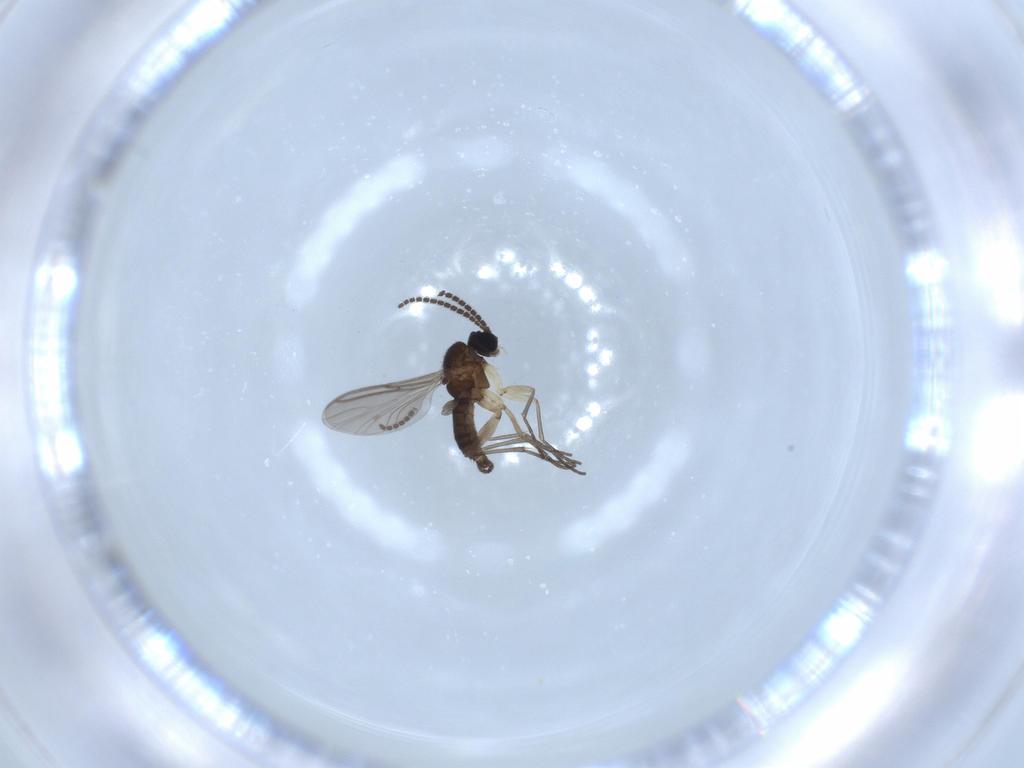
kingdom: Animalia
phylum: Arthropoda
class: Insecta
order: Diptera
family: Sciaridae
